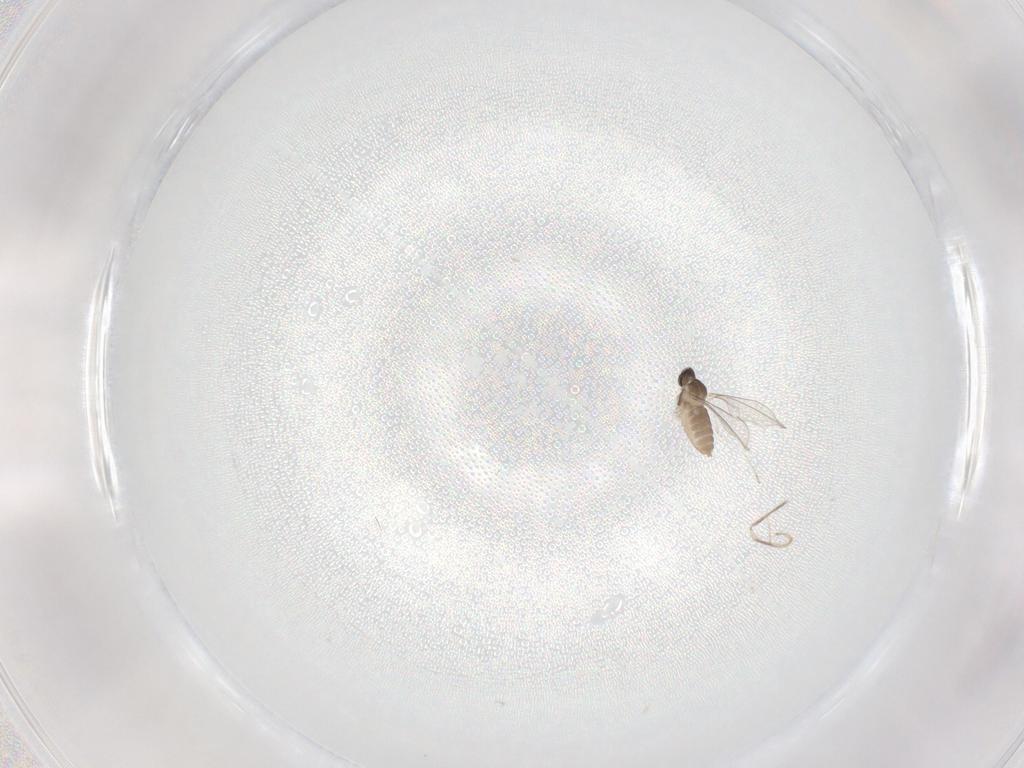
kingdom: Animalia
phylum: Arthropoda
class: Insecta
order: Diptera
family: Cecidomyiidae
